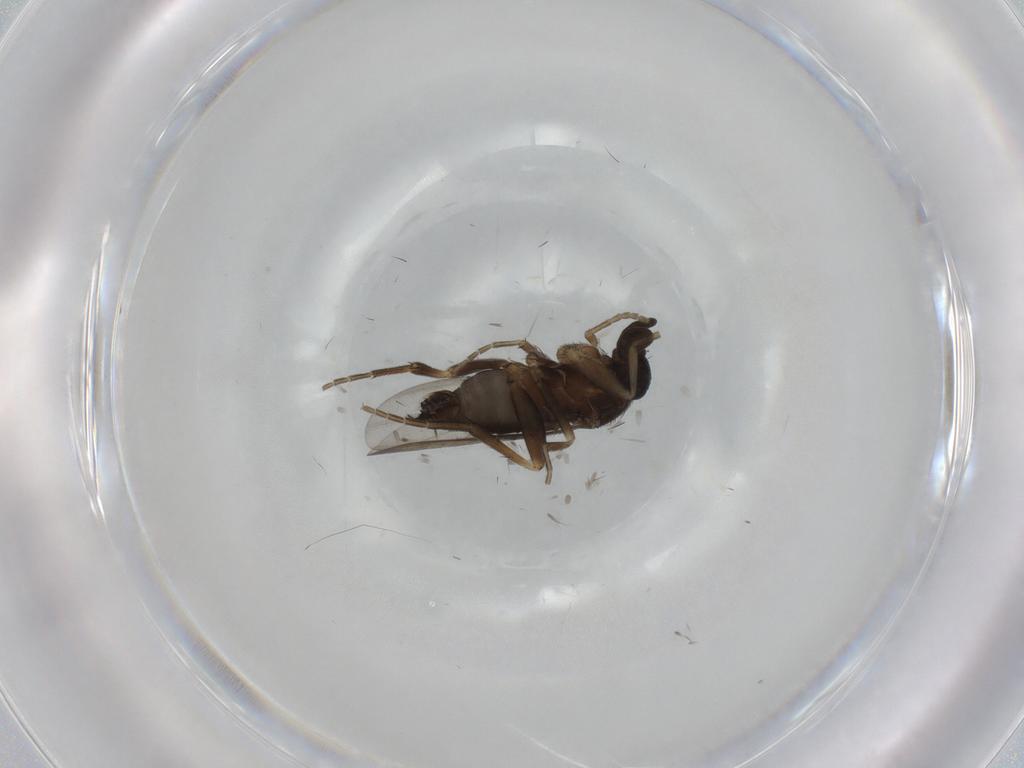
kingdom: Animalia
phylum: Arthropoda
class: Insecta
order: Diptera
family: Phoridae
